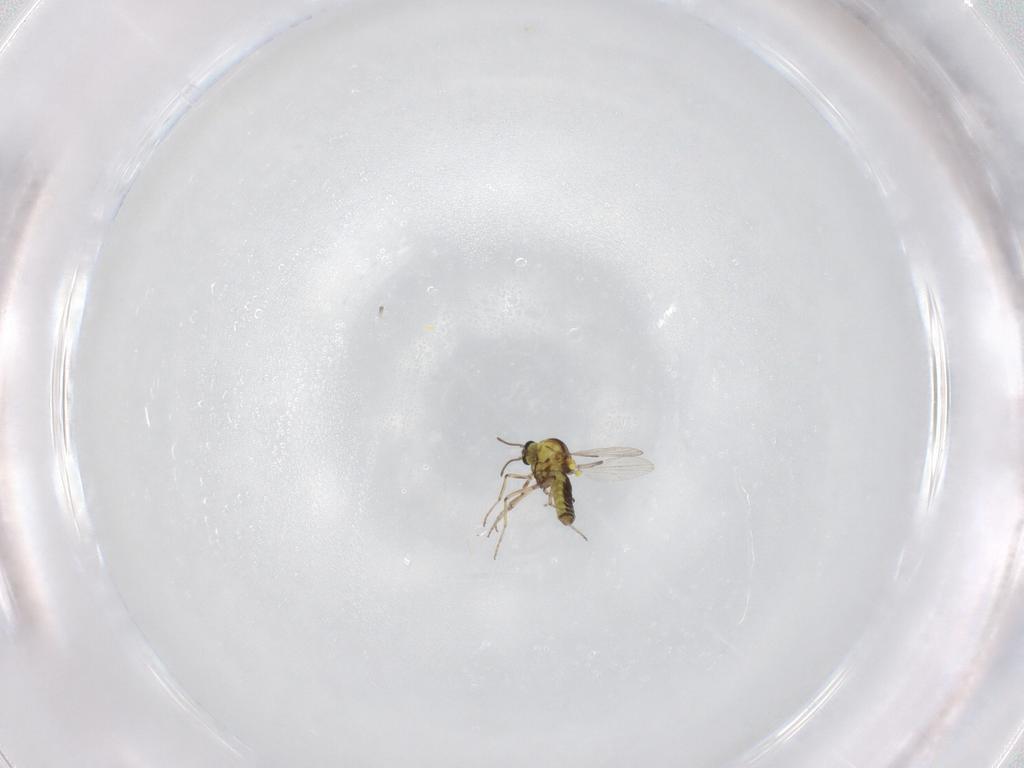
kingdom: Animalia
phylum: Arthropoda
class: Insecta
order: Diptera
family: Ceratopogonidae
